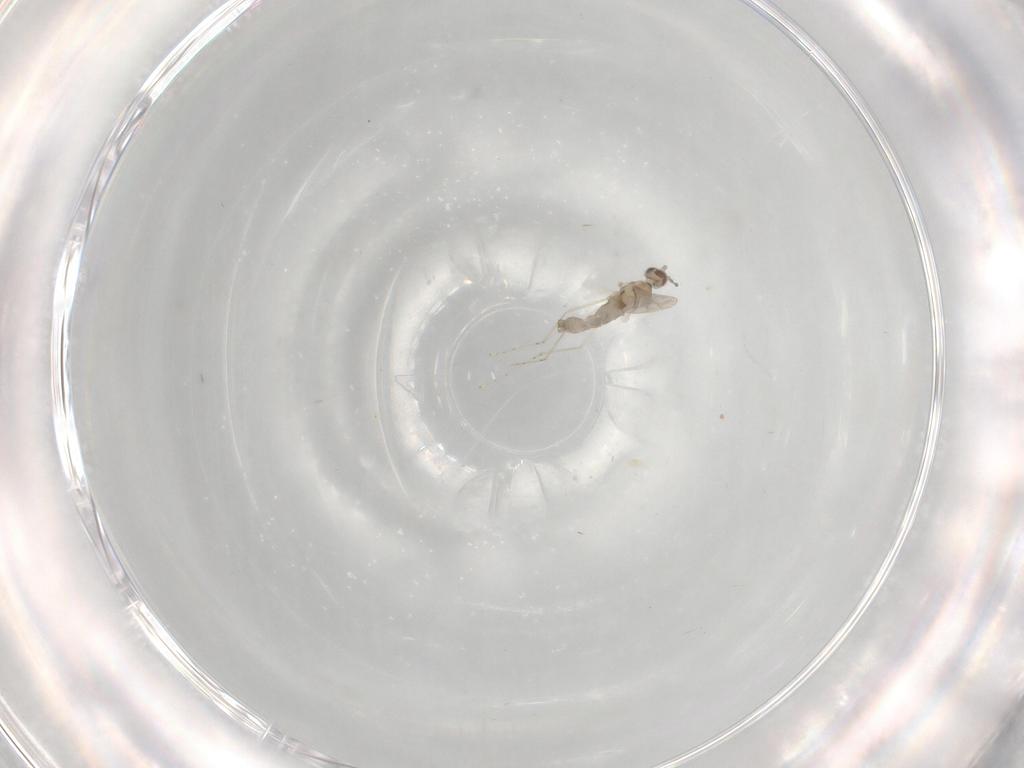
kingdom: Animalia
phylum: Arthropoda
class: Insecta
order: Diptera
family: Cecidomyiidae
